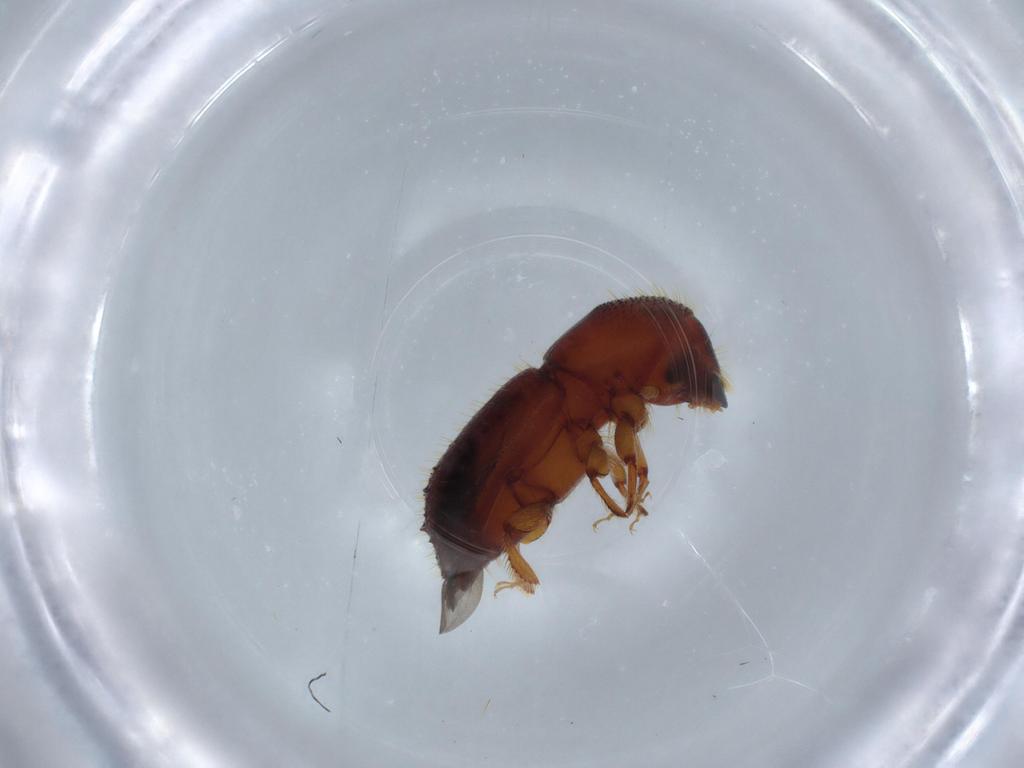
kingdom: Animalia
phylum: Arthropoda
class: Insecta
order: Coleoptera
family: Curculionidae
